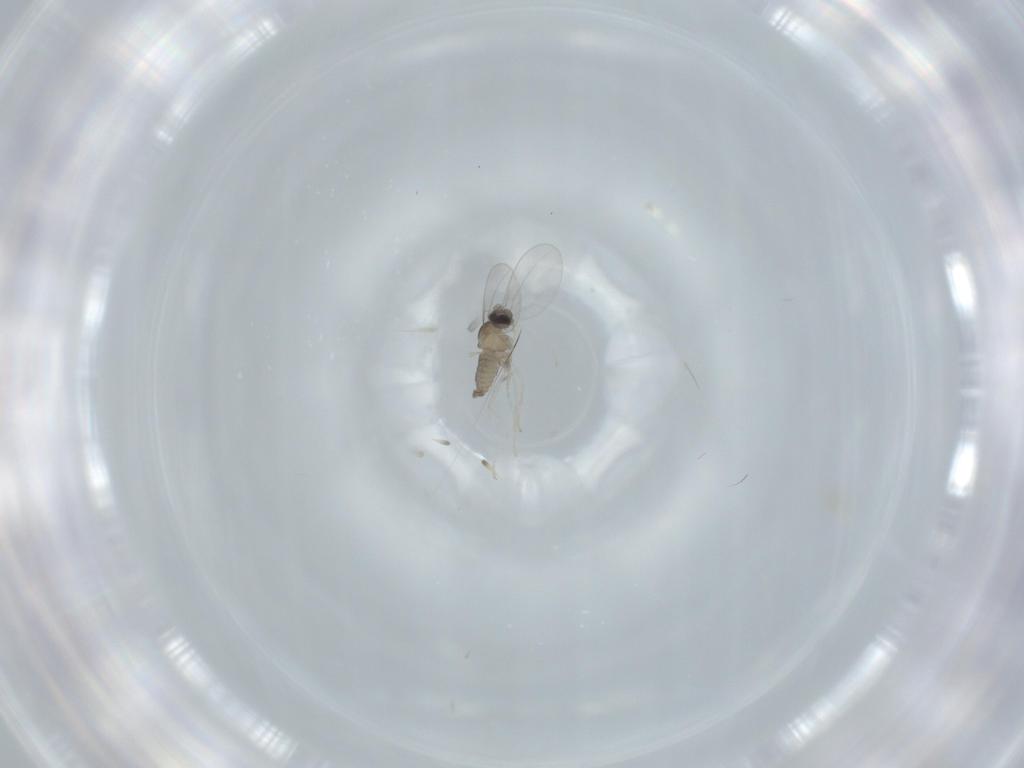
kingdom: Animalia
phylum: Arthropoda
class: Insecta
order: Diptera
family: Cecidomyiidae
